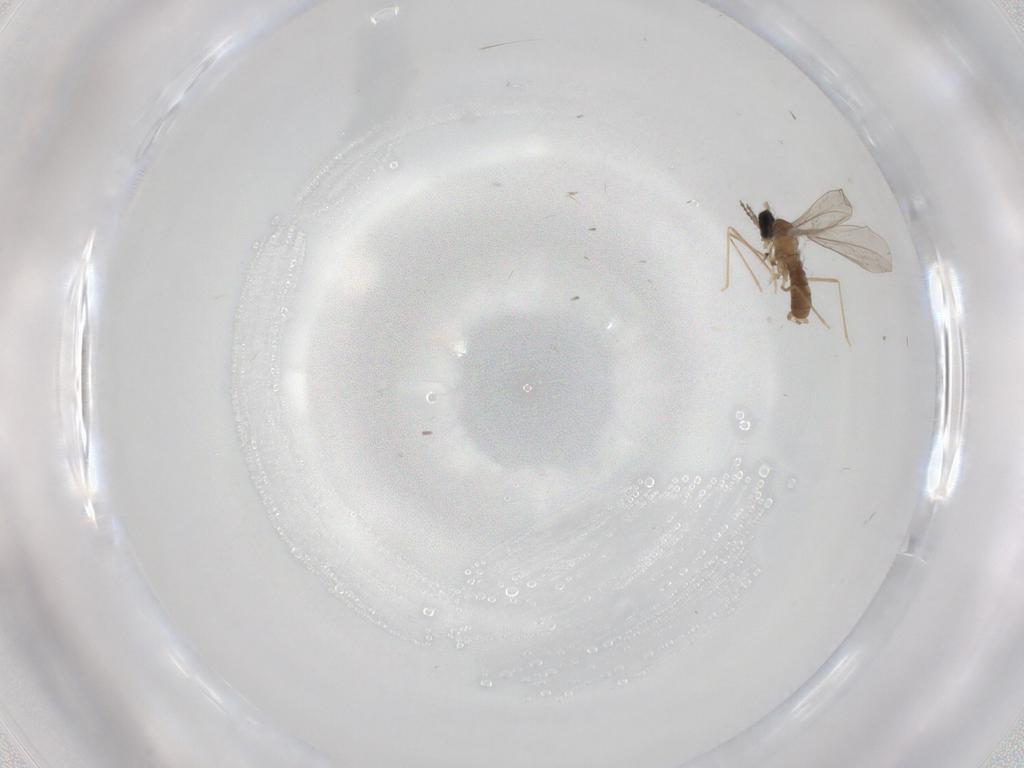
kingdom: Animalia
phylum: Arthropoda
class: Insecta
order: Diptera
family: Cecidomyiidae
